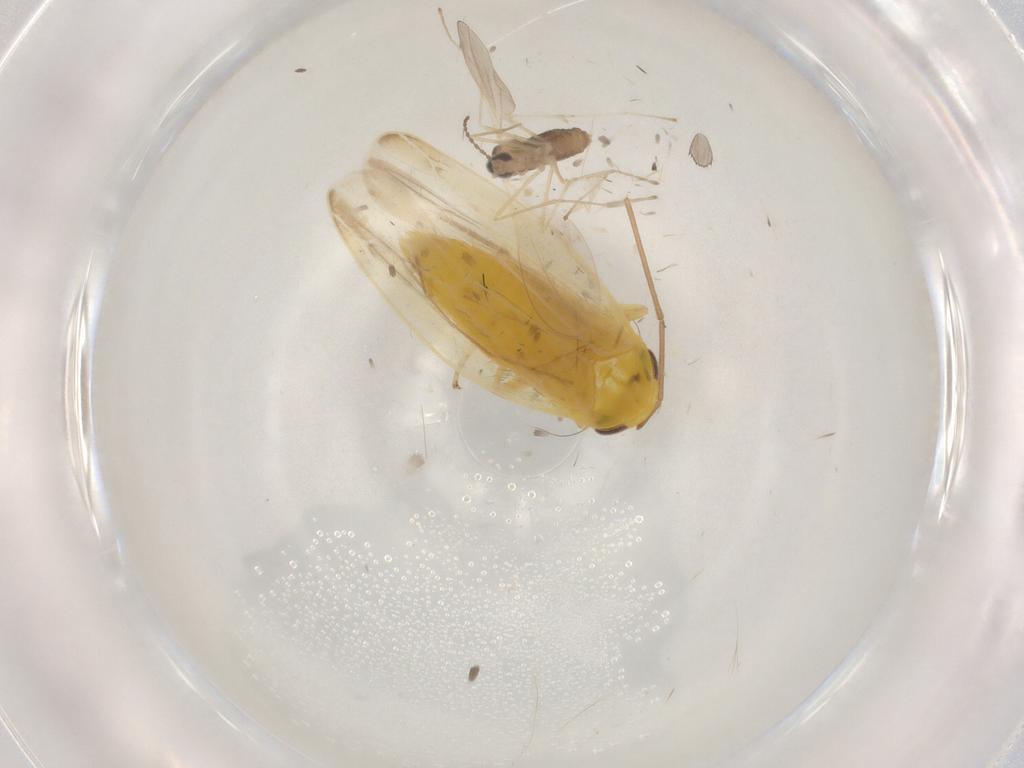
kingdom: Animalia
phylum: Arthropoda
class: Insecta
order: Diptera
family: Cecidomyiidae
